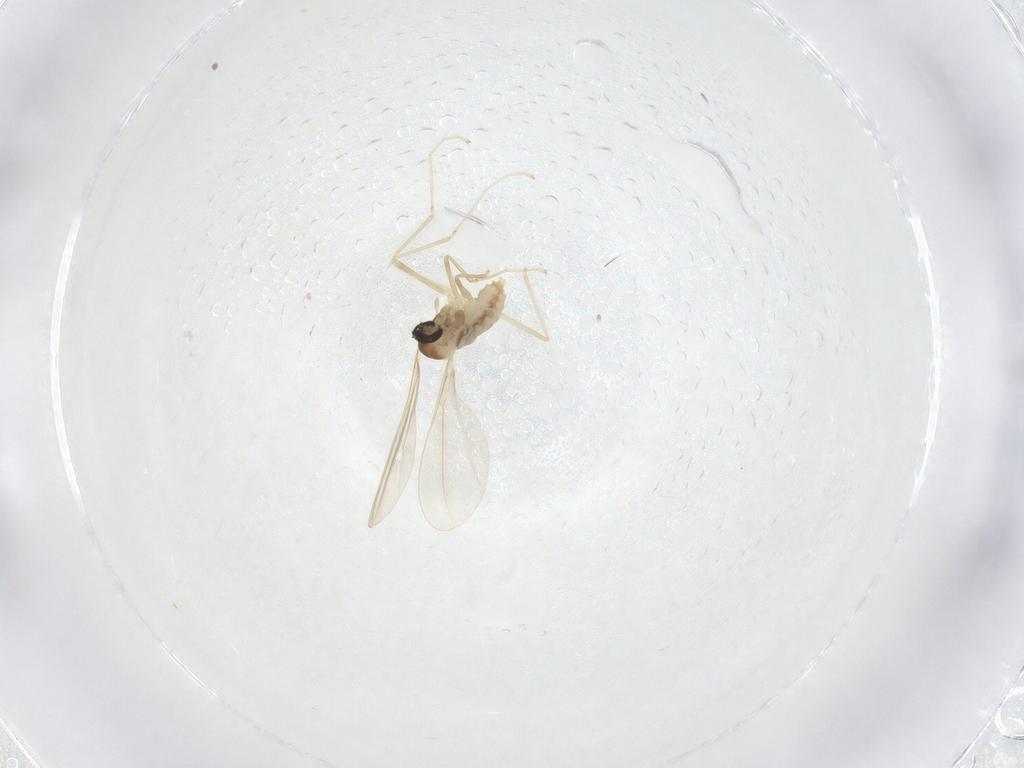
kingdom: Animalia
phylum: Arthropoda
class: Insecta
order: Diptera
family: Cecidomyiidae
